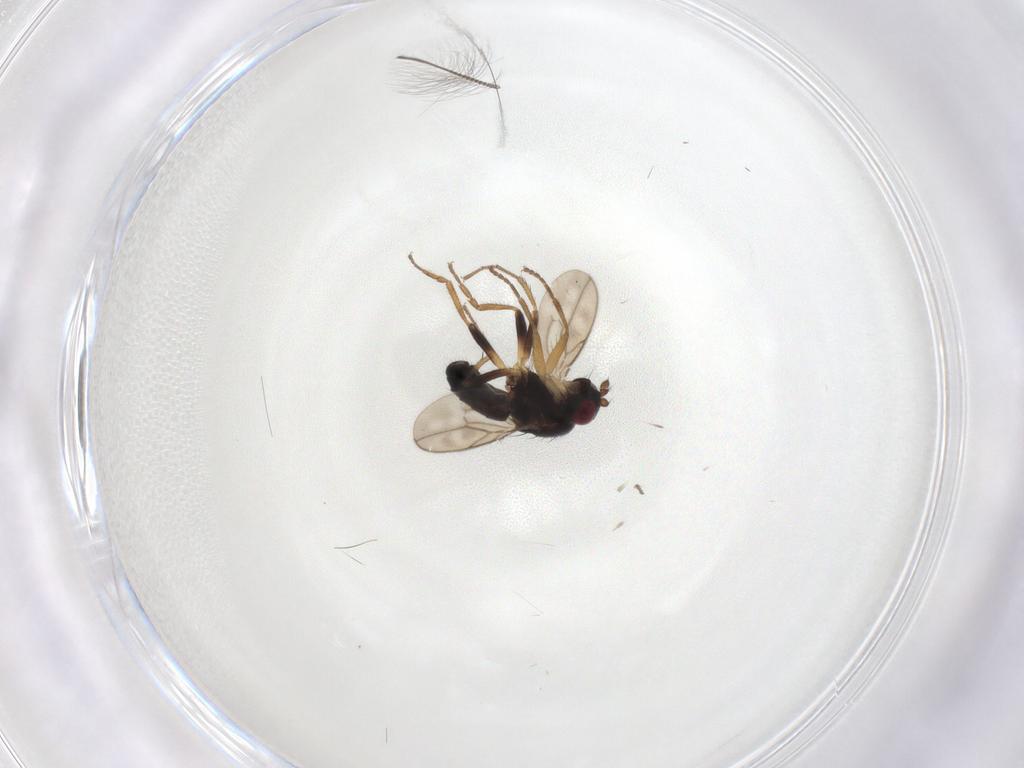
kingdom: Animalia
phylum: Arthropoda
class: Insecta
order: Diptera
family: Sphaeroceridae
